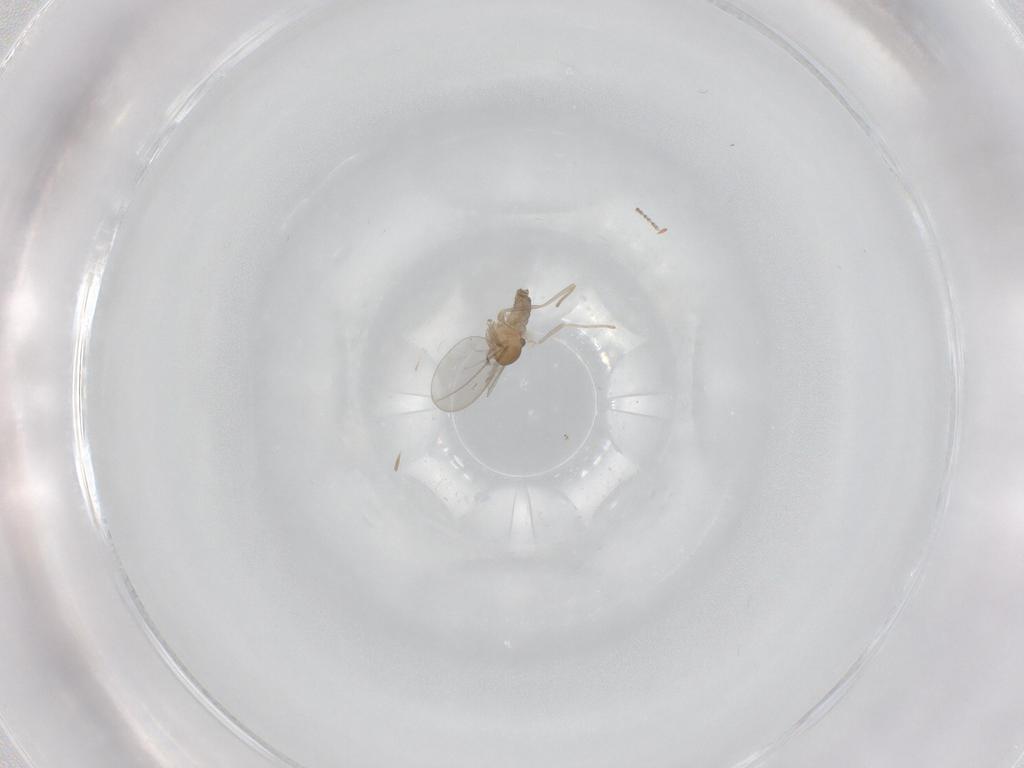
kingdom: Animalia
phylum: Arthropoda
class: Insecta
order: Diptera
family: Cecidomyiidae
